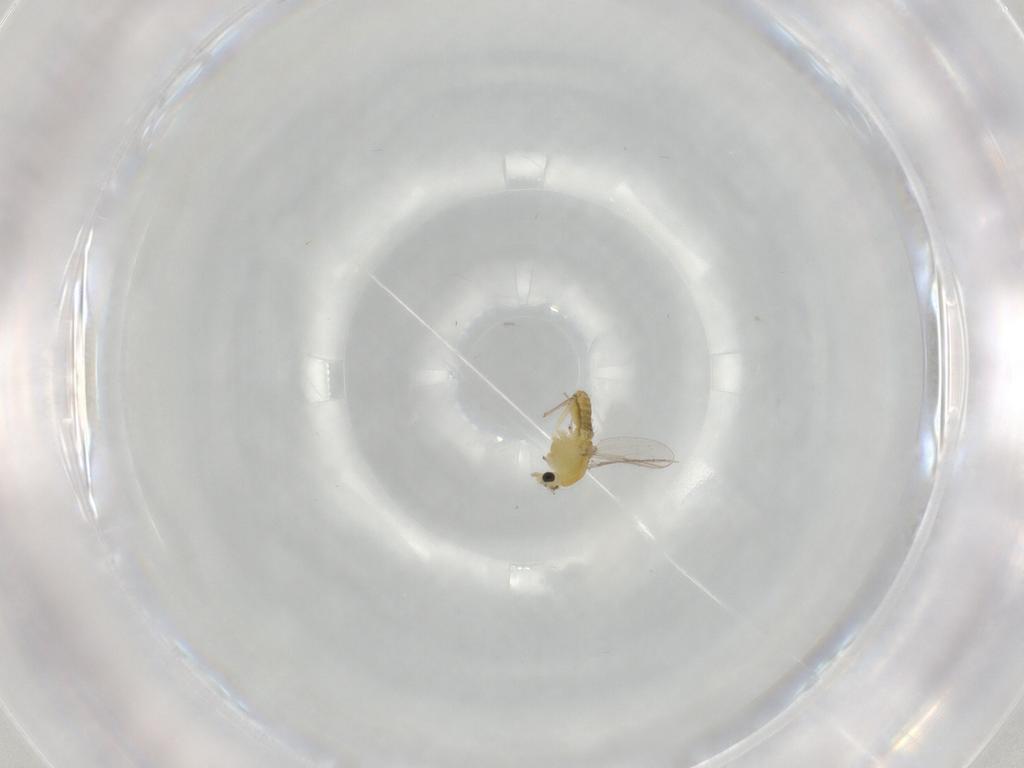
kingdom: Animalia
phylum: Arthropoda
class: Insecta
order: Diptera
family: Chironomidae
